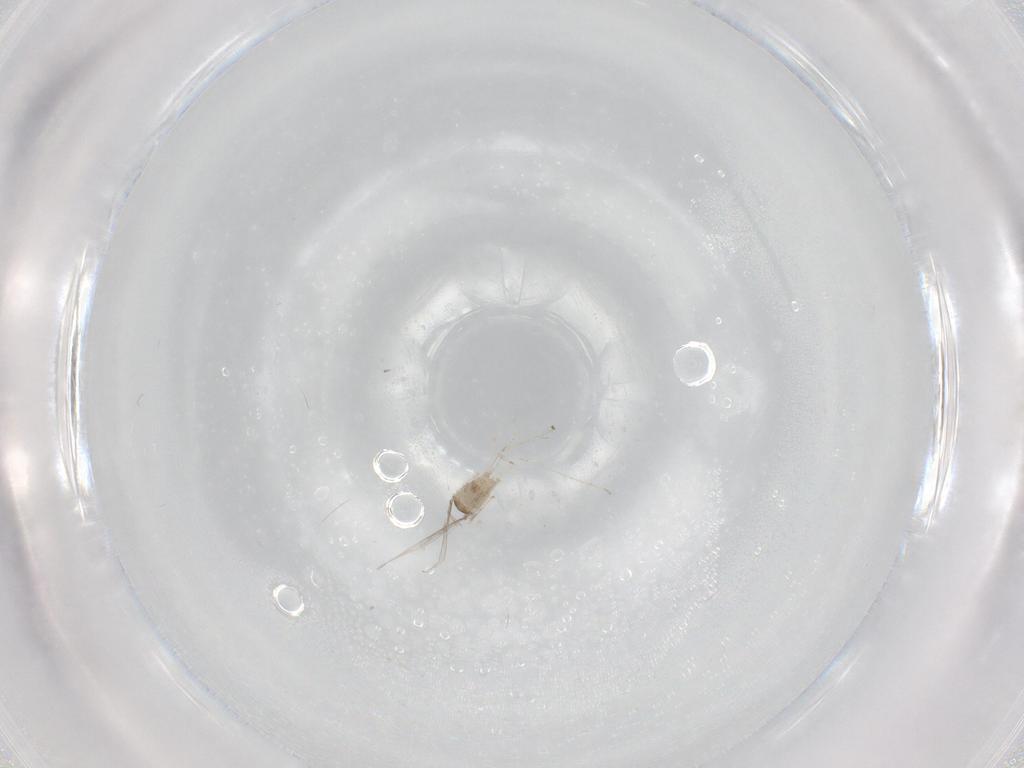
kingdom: Animalia
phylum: Arthropoda
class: Insecta
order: Diptera
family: Cecidomyiidae
